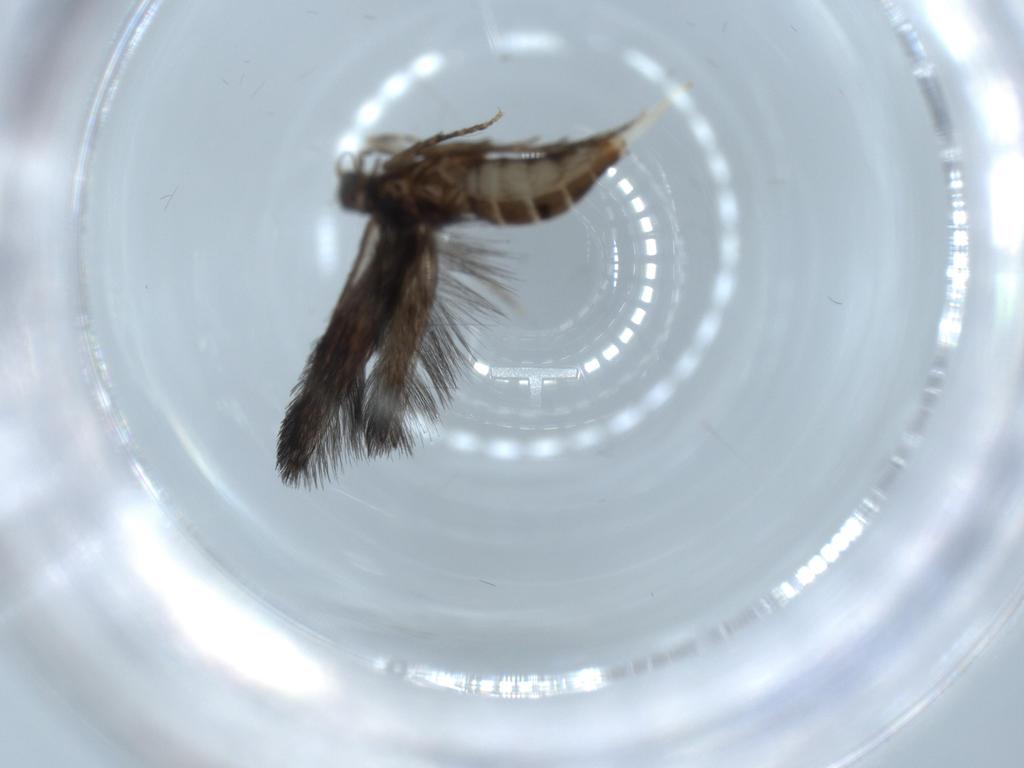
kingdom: Animalia
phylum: Arthropoda
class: Insecta
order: Trichoptera
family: Hydroptilidae
